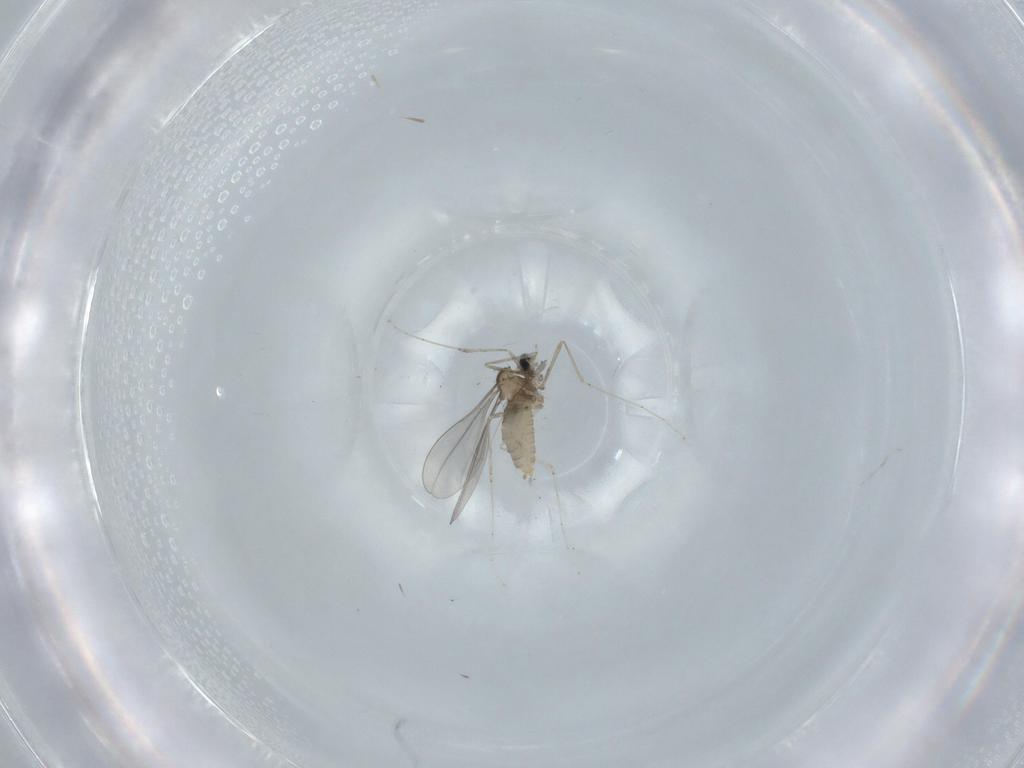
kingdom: Animalia
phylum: Arthropoda
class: Insecta
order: Diptera
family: Cecidomyiidae
